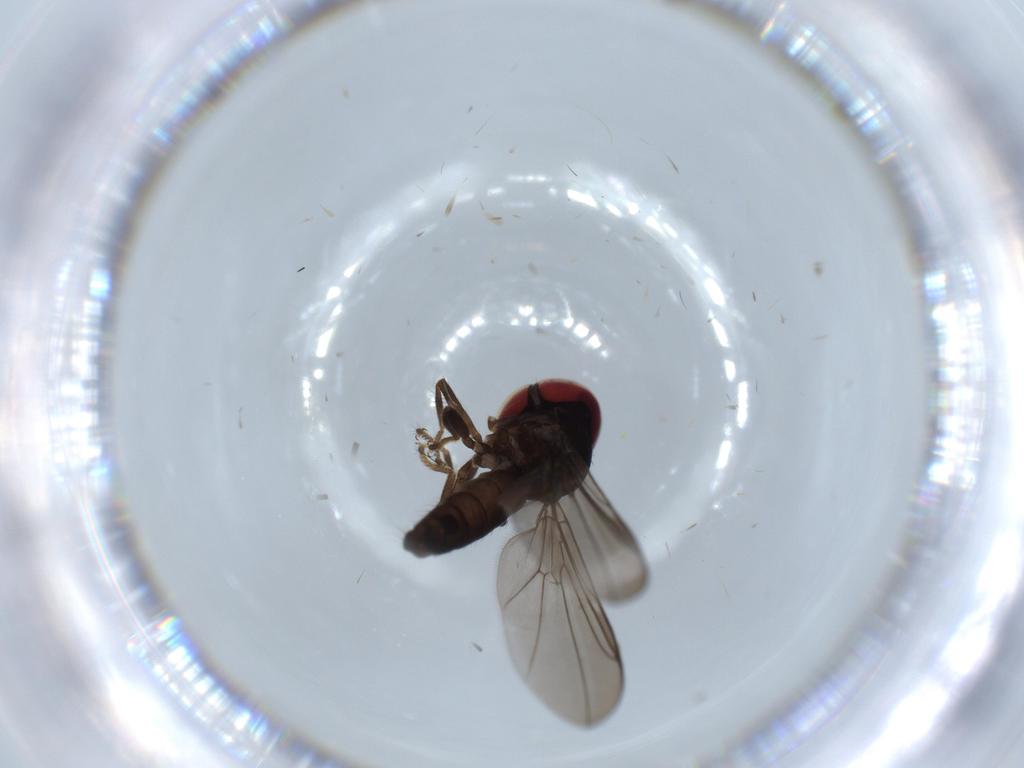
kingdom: Animalia
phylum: Arthropoda
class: Insecta
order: Diptera
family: Pipunculidae
